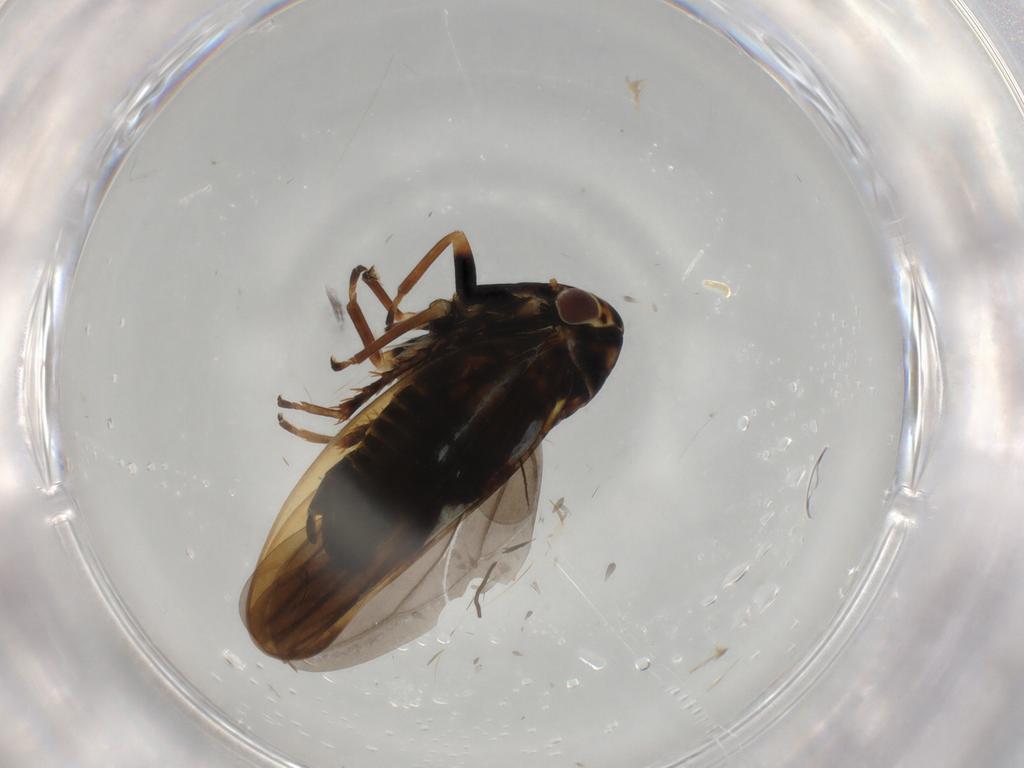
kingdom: Animalia
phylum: Arthropoda
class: Insecta
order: Hemiptera
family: Cicadellidae
